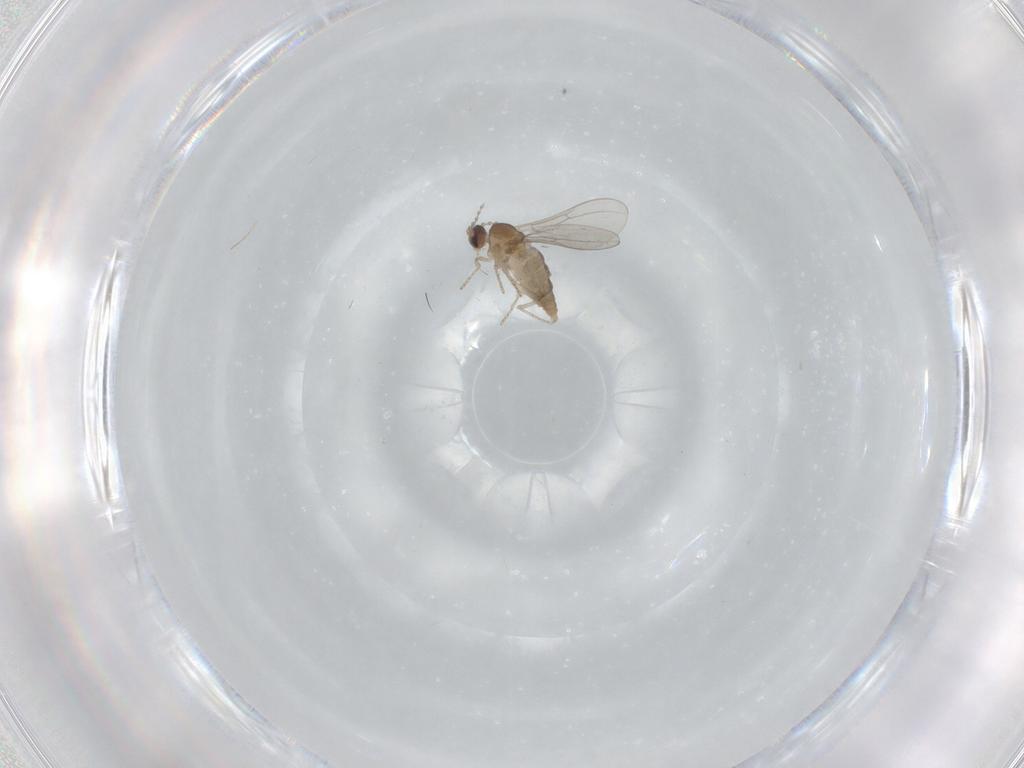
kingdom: Animalia
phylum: Arthropoda
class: Insecta
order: Diptera
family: Cecidomyiidae
